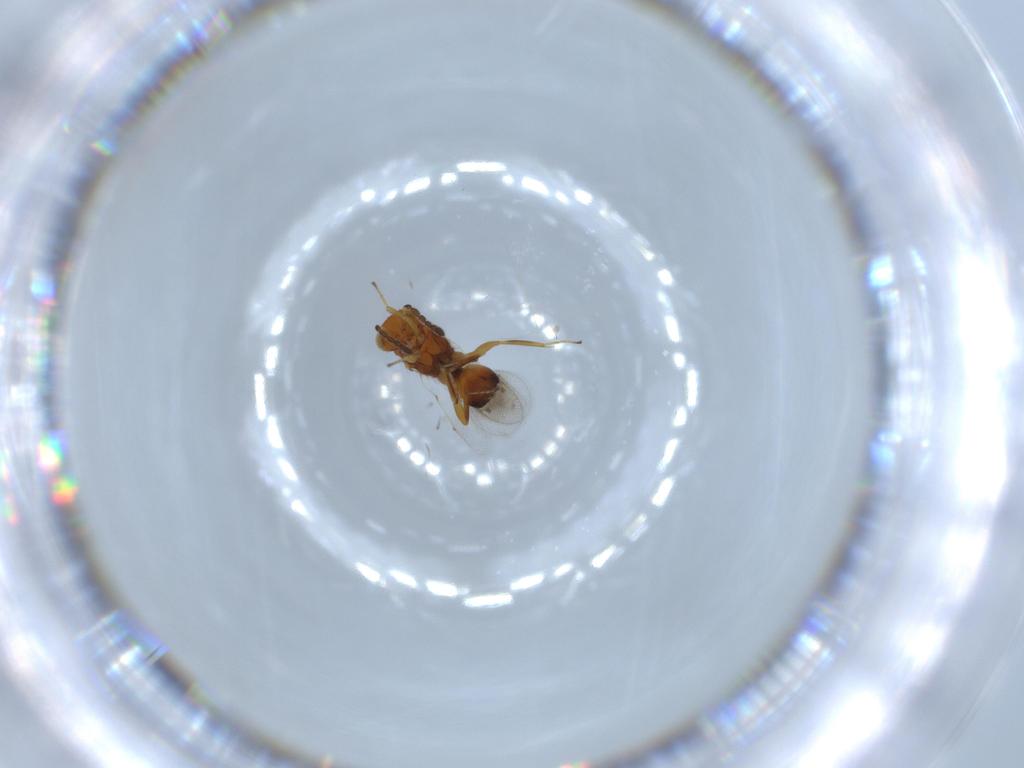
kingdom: Animalia
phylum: Arthropoda
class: Insecta
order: Hymenoptera
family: Moranilidae
